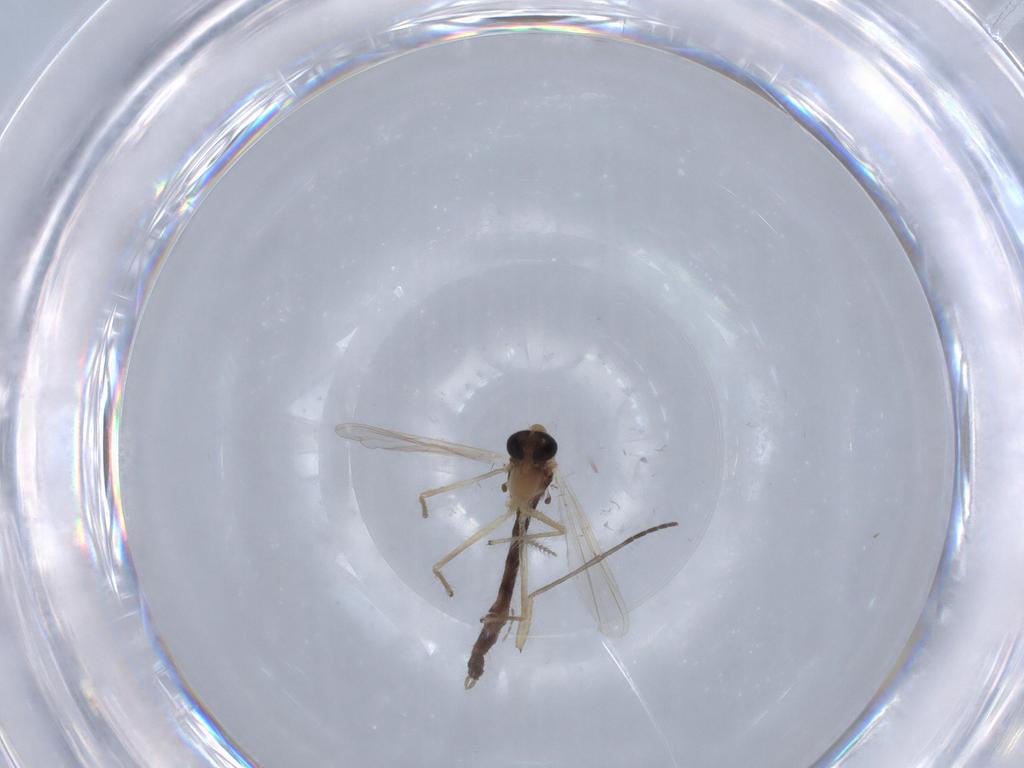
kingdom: Animalia
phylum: Arthropoda
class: Insecta
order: Diptera
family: Chironomidae
